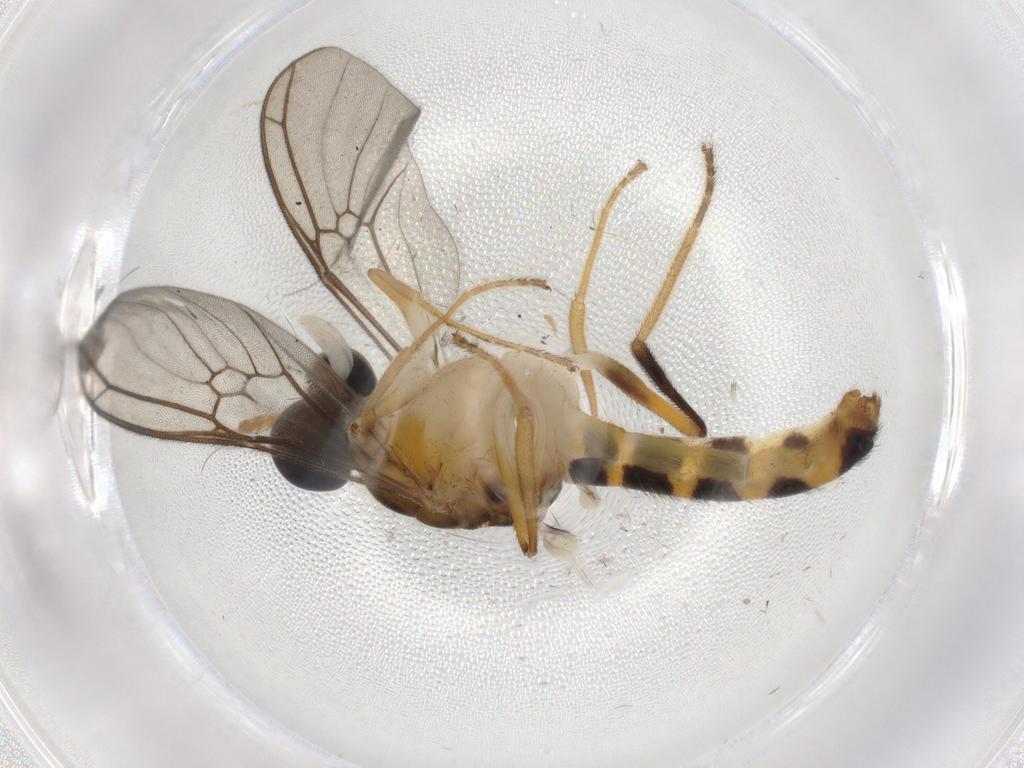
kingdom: Animalia
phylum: Arthropoda
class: Insecta
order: Diptera
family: Psychodidae
